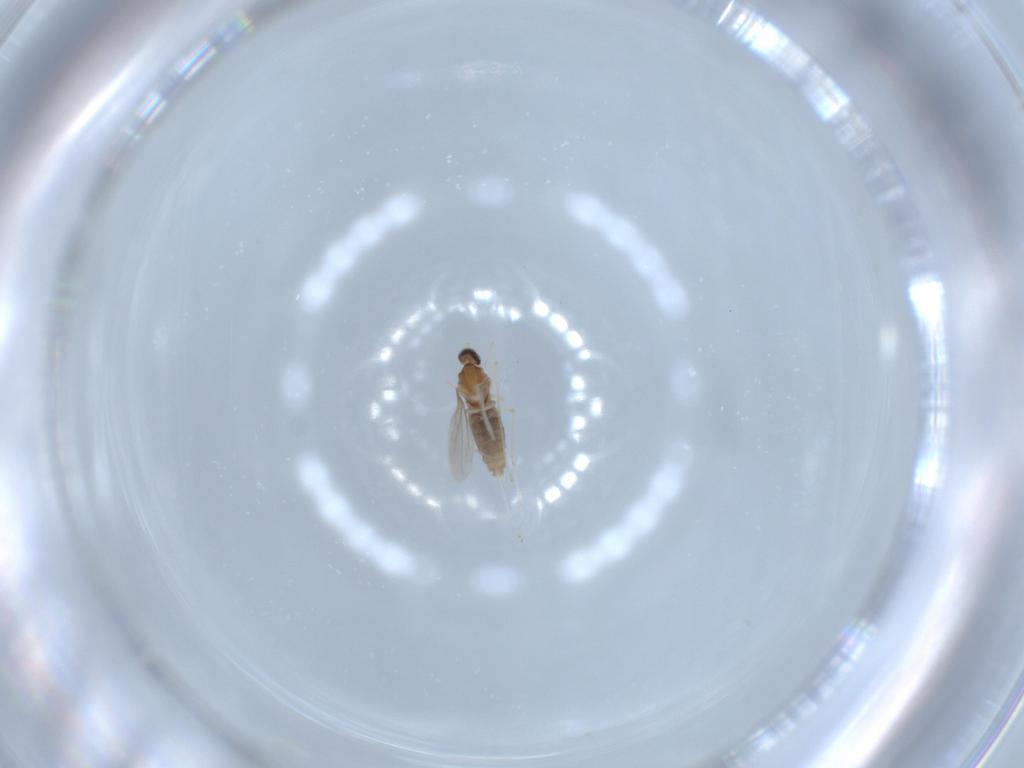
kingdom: Animalia
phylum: Arthropoda
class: Insecta
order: Diptera
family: Cecidomyiidae
